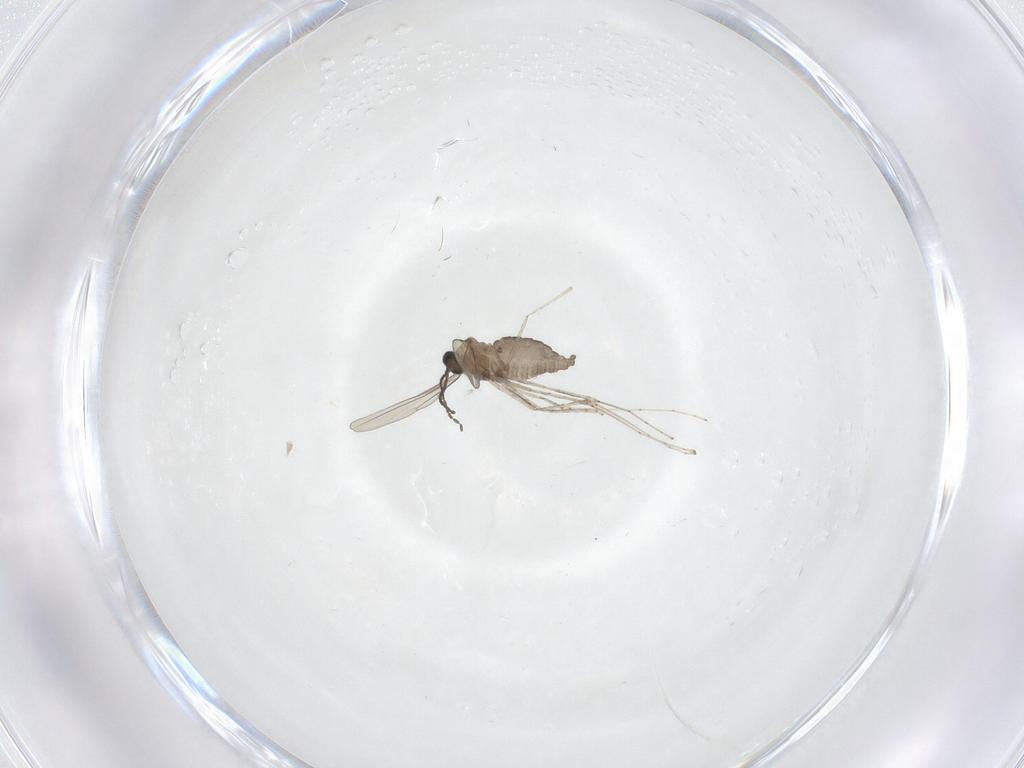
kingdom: Animalia
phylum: Arthropoda
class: Insecta
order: Diptera
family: Cecidomyiidae
